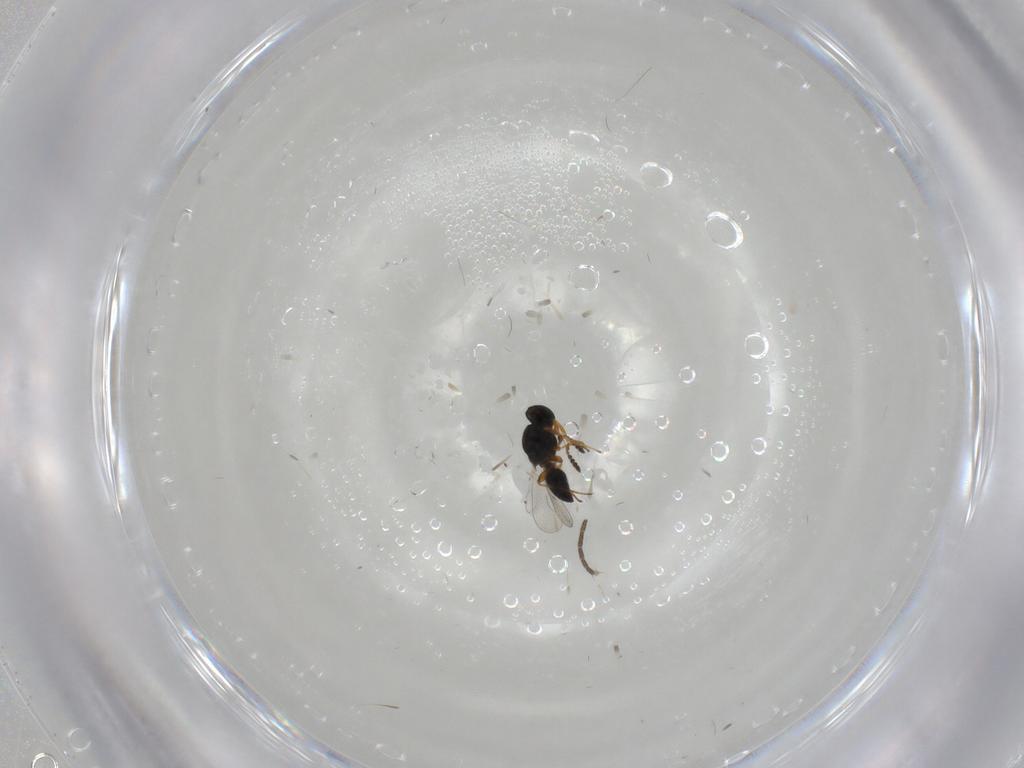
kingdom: Animalia
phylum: Arthropoda
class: Insecta
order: Hymenoptera
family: Platygastridae
